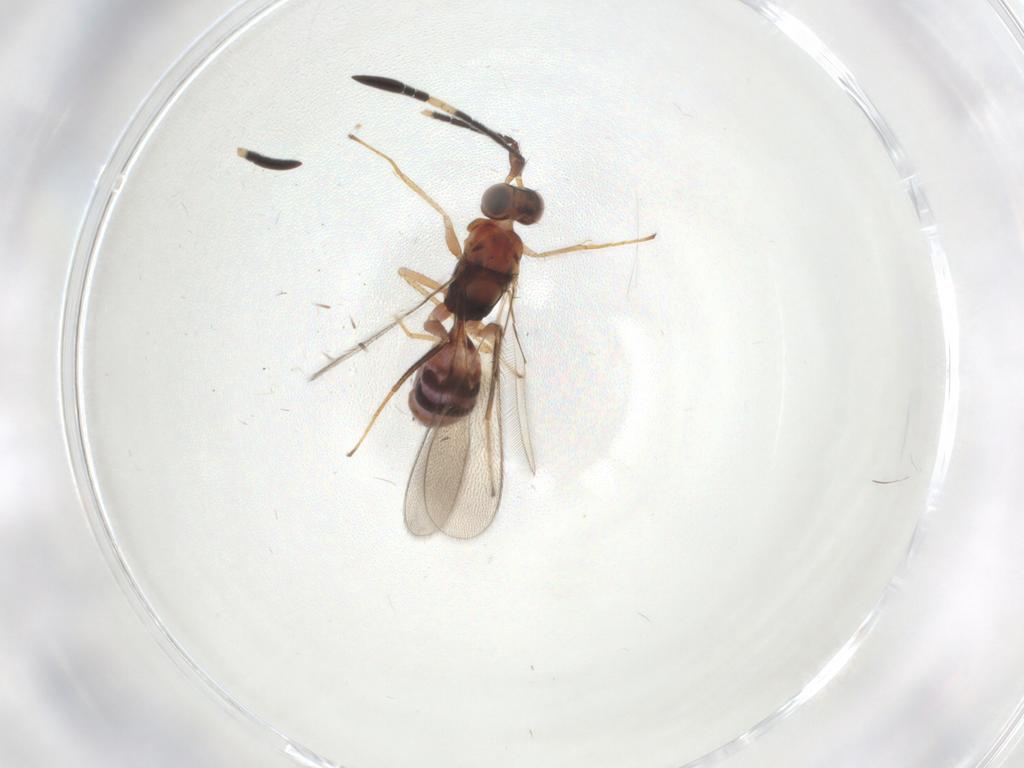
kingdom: Animalia
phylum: Arthropoda
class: Insecta
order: Hymenoptera
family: Mymaridae
